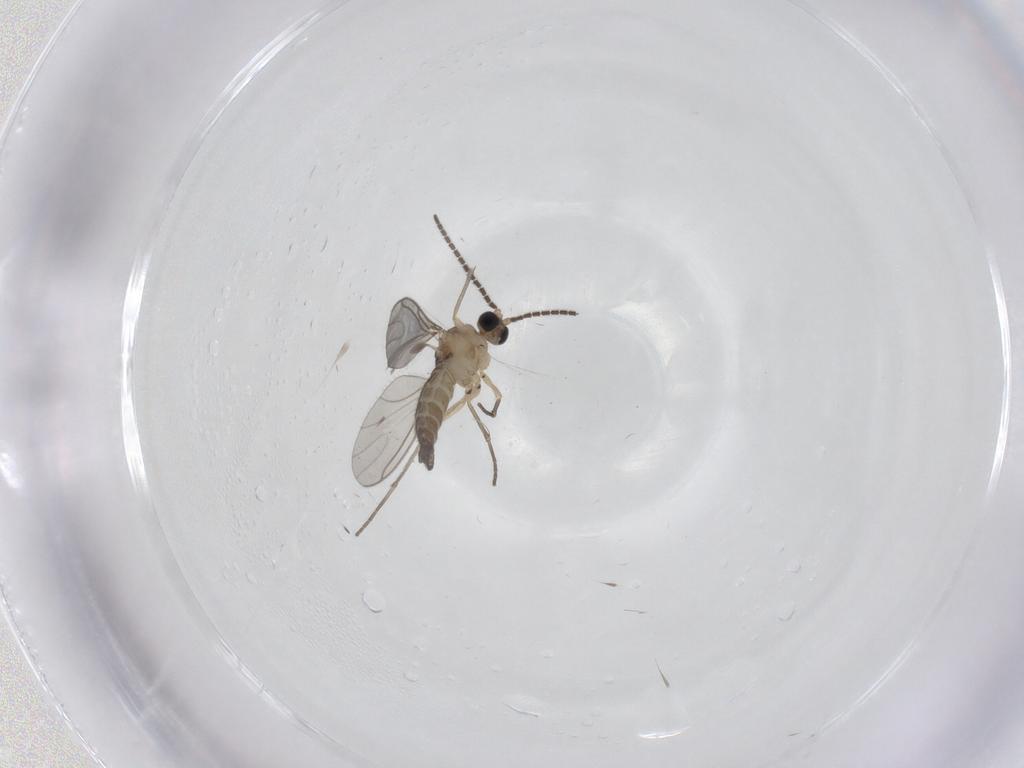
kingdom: Animalia
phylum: Arthropoda
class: Insecta
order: Diptera
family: Sciaridae
